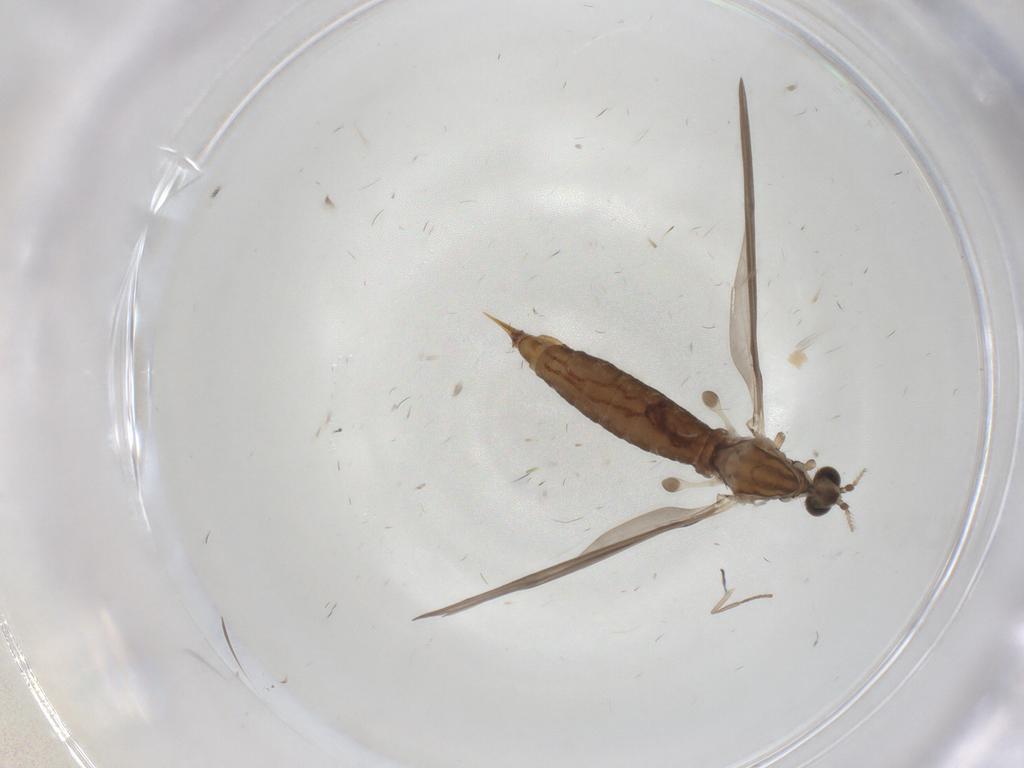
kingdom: Animalia
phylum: Arthropoda
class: Insecta
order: Diptera
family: Limoniidae
